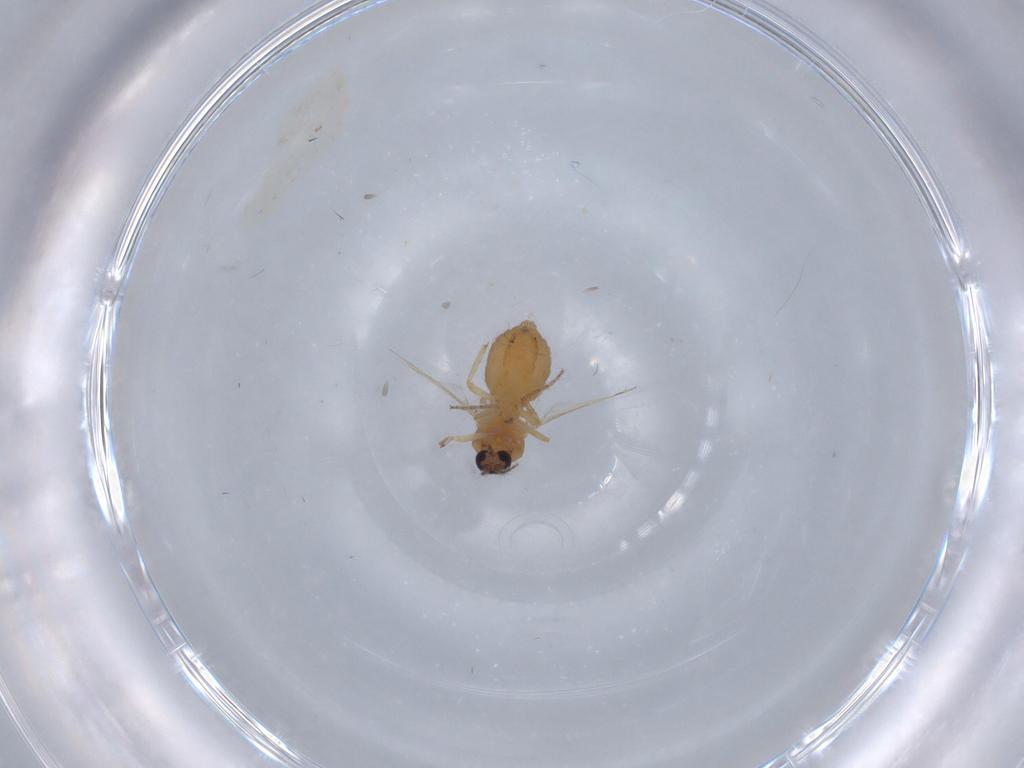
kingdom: Animalia
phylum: Arthropoda
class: Insecta
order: Diptera
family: Ceratopogonidae
